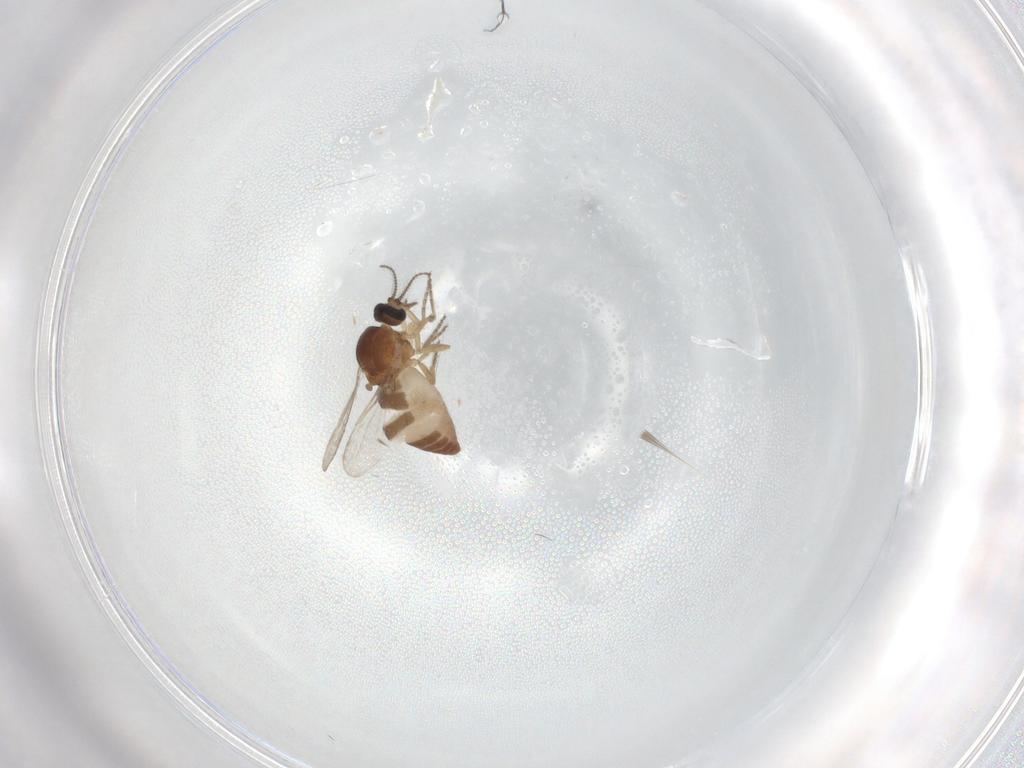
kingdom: Animalia
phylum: Arthropoda
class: Insecta
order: Diptera
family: Ceratopogonidae
